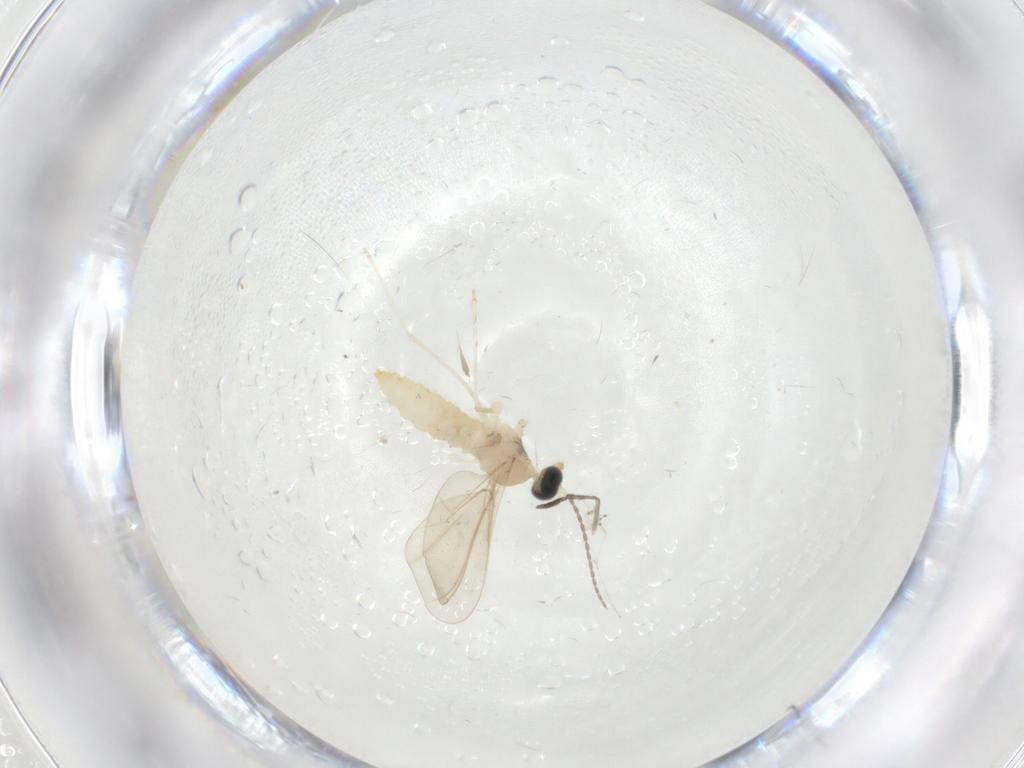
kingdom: Animalia
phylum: Arthropoda
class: Insecta
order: Diptera
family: Cecidomyiidae
